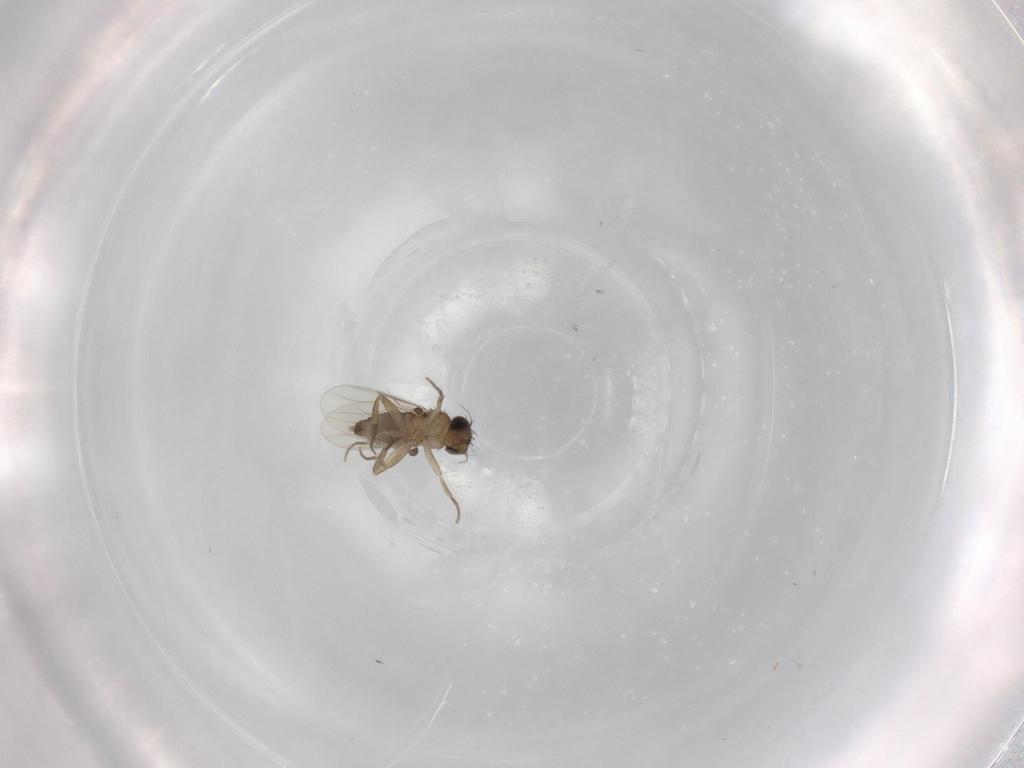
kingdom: Animalia
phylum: Arthropoda
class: Insecta
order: Diptera
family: Phoridae
